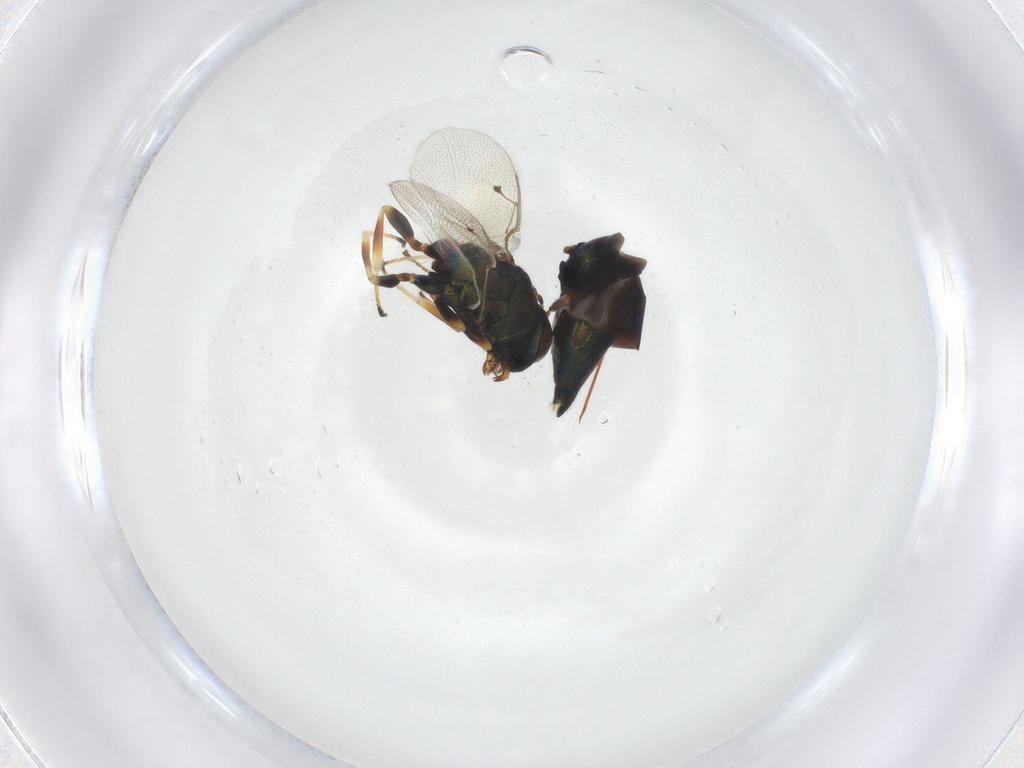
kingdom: Animalia
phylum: Arthropoda
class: Insecta
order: Hymenoptera
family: Pteromalidae
